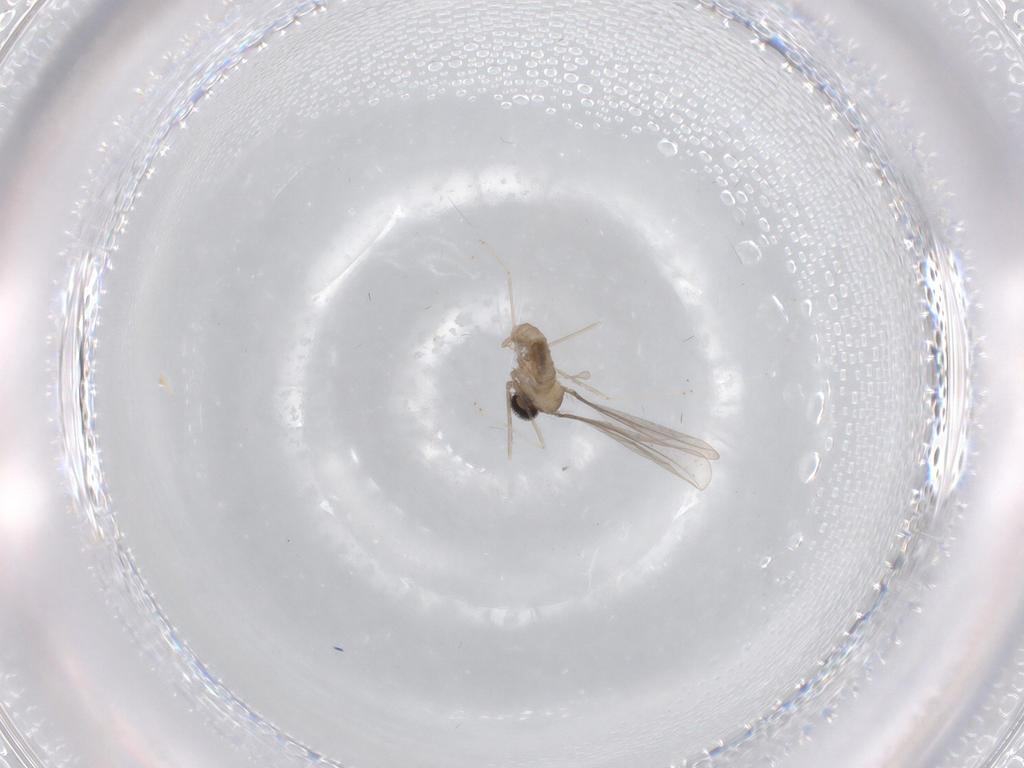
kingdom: Animalia
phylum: Arthropoda
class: Insecta
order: Diptera
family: Cecidomyiidae
